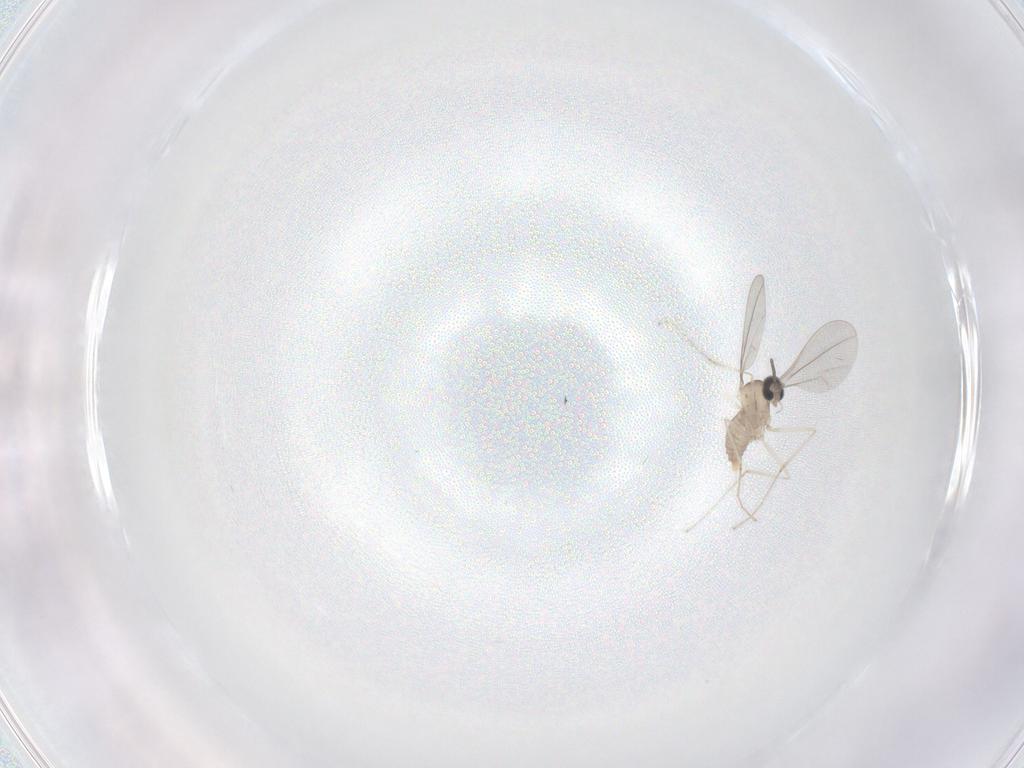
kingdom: Animalia
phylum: Arthropoda
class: Insecta
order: Diptera
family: Cecidomyiidae
